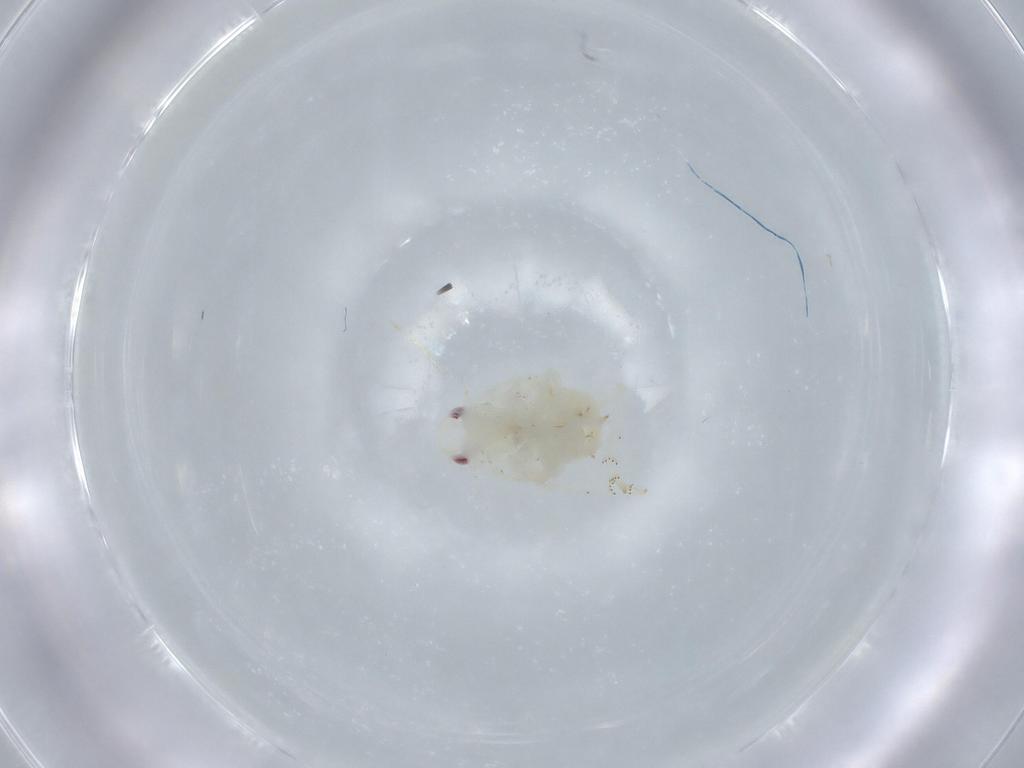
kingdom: Animalia
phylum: Arthropoda
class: Insecta
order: Hemiptera
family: Flatidae
